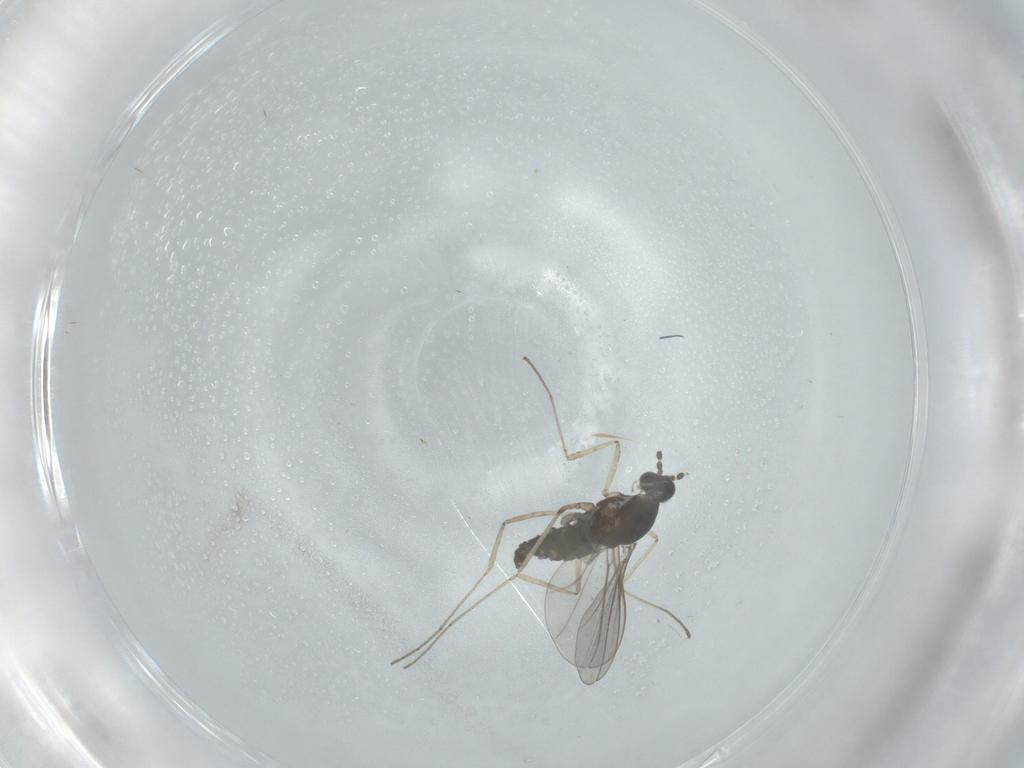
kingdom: Animalia
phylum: Arthropoda
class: Insecta
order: Diptera
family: Cecidomyiidae
